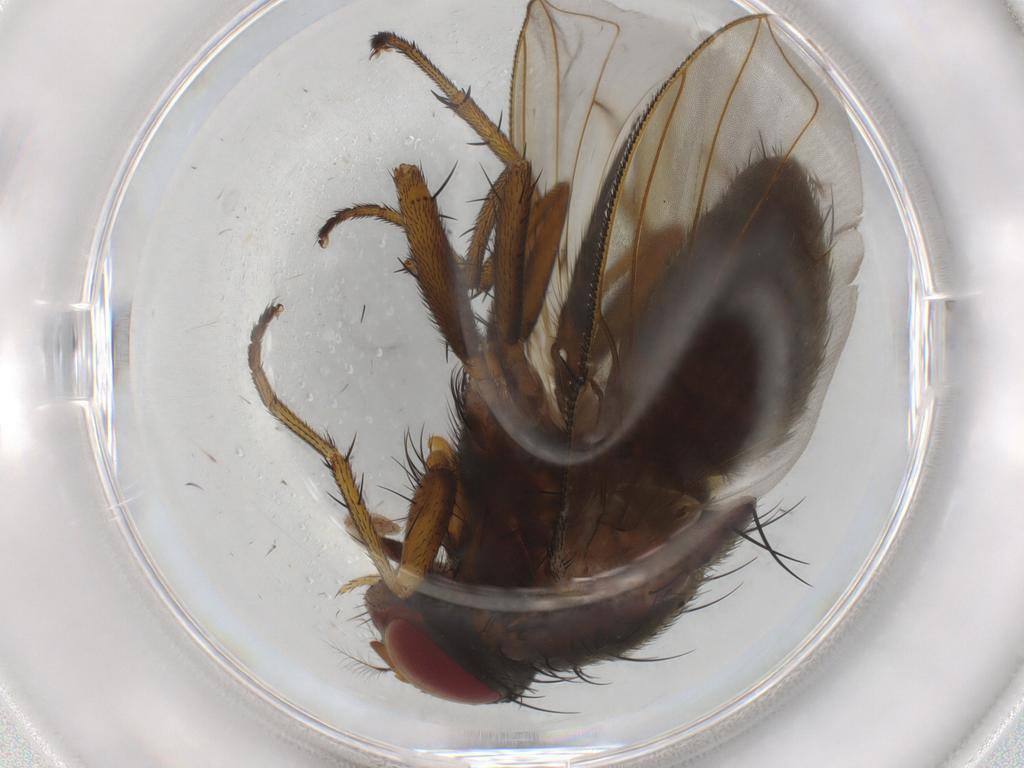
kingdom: Animalia
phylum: Arthropoda
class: Insecta
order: Diptera
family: Tachinidae
